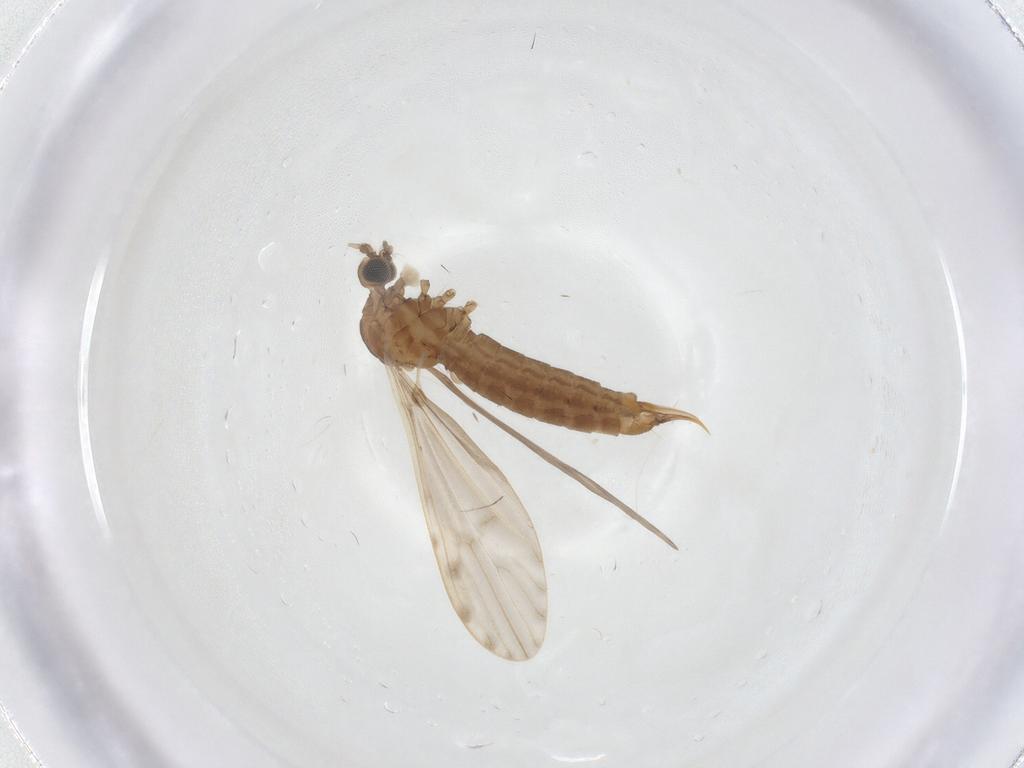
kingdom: Animalia
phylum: Arthropoda
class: Insecta
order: Diptera
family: Limoniidae
